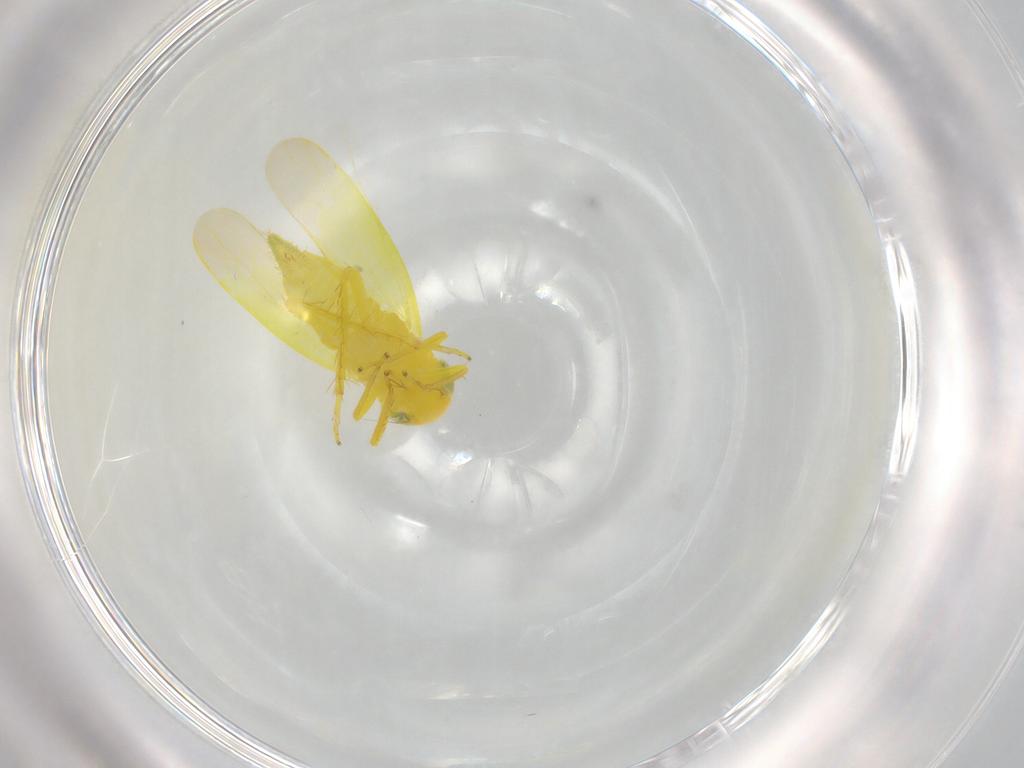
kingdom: Animalia
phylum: Arthropoda
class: Insecta
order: Hemiptera
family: Cicadellidae
